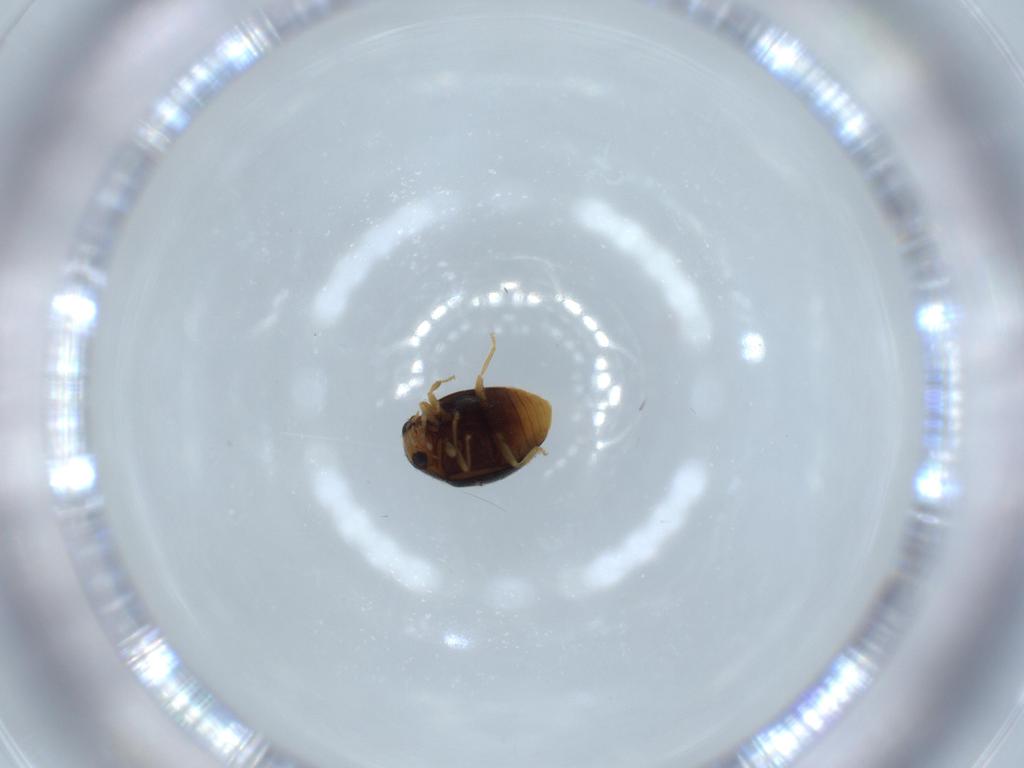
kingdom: Animalia
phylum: Arthropoda
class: Insecta
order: Coleoptera
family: Coccinellidae
